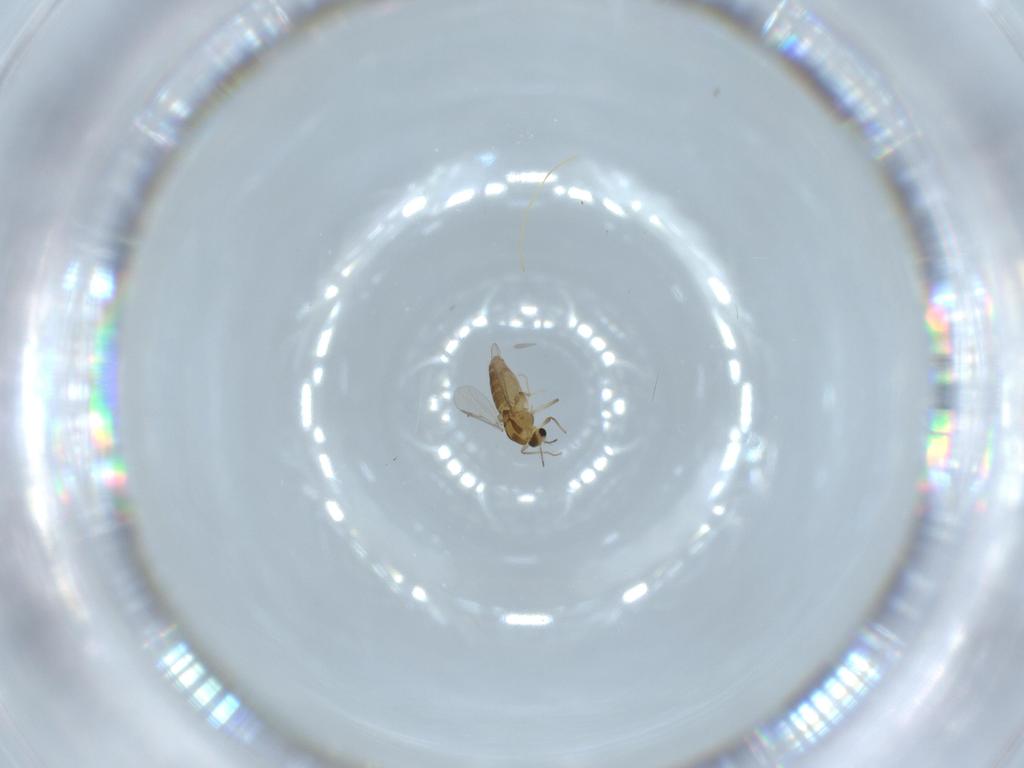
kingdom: Animalia
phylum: Arthropoda
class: Insecta
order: Diptera
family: Chironomidae
